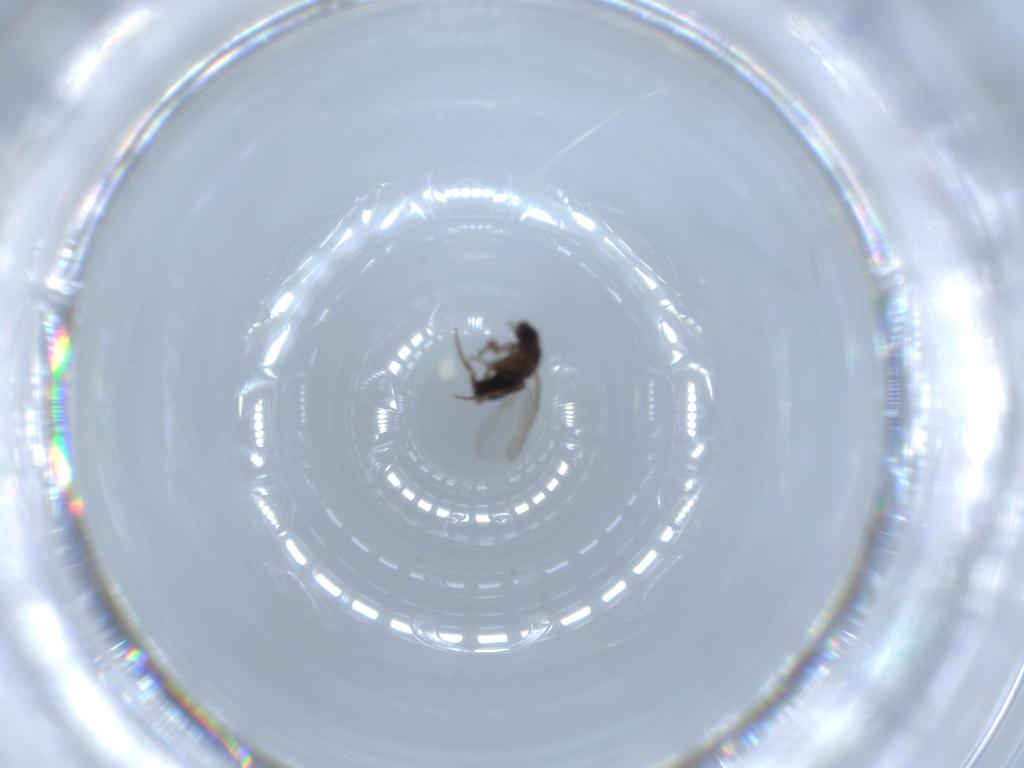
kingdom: Animalia
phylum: Arthropoda
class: Insecta
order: Diptera
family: Phoridae
